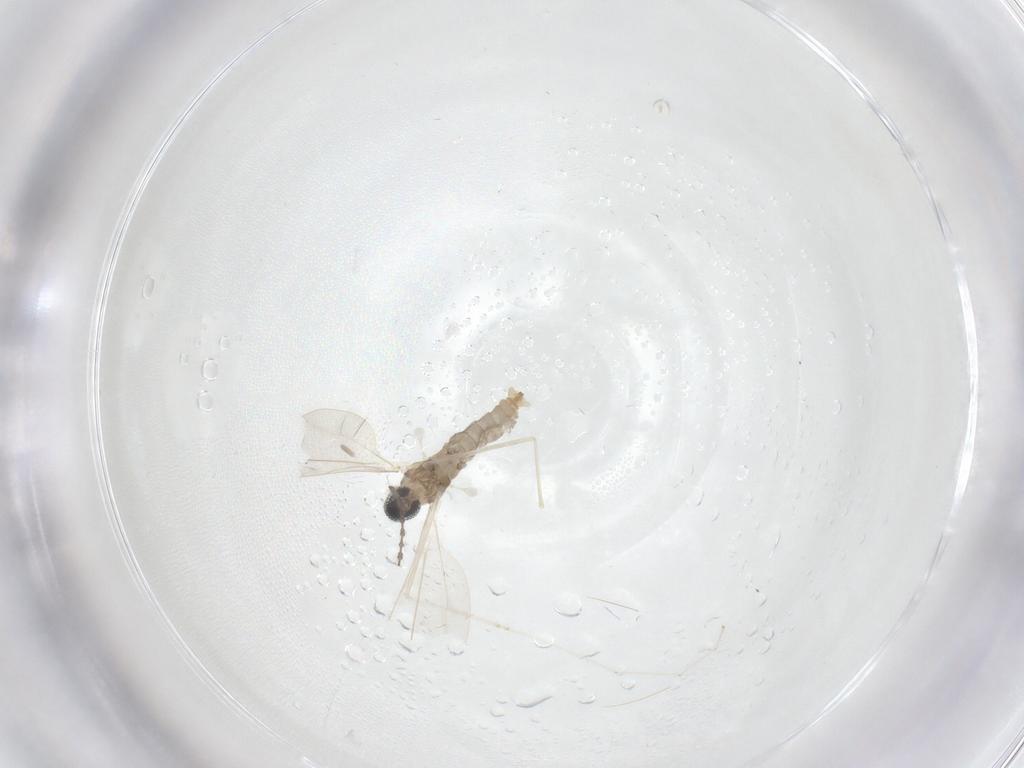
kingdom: Animalia
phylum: Arthropoda
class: Insecta
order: Diptera
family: Cecidomyiidae
